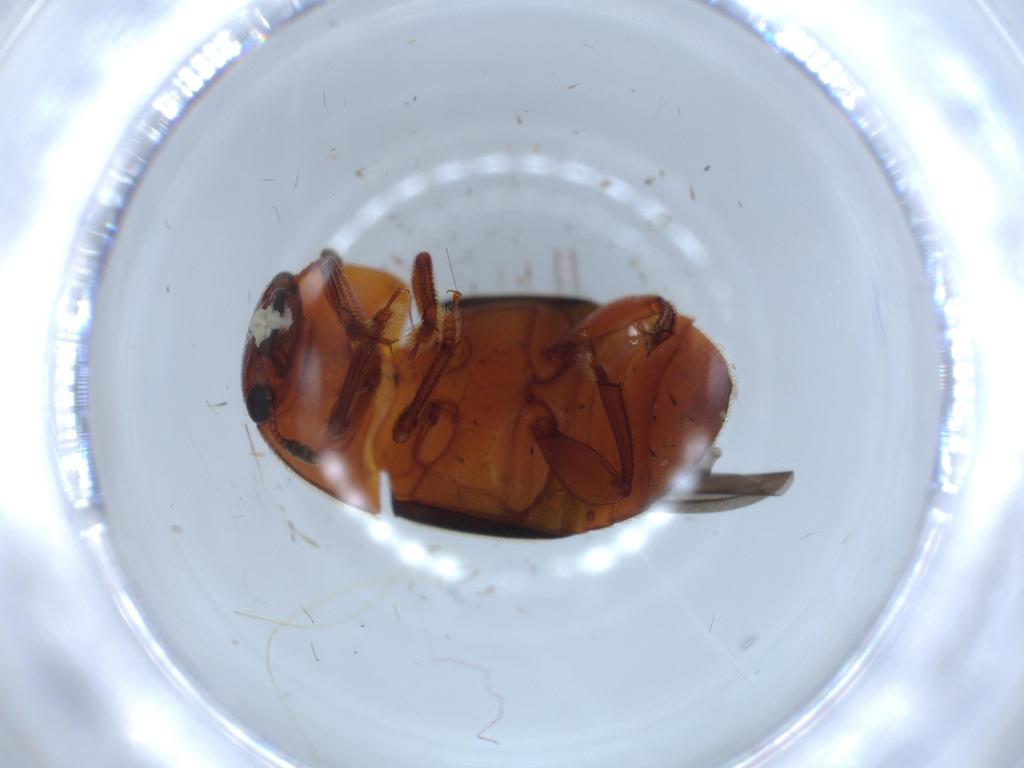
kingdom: Animalia
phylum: Arthropoda
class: Insecta
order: Coleoptera
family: Nitidulidae
